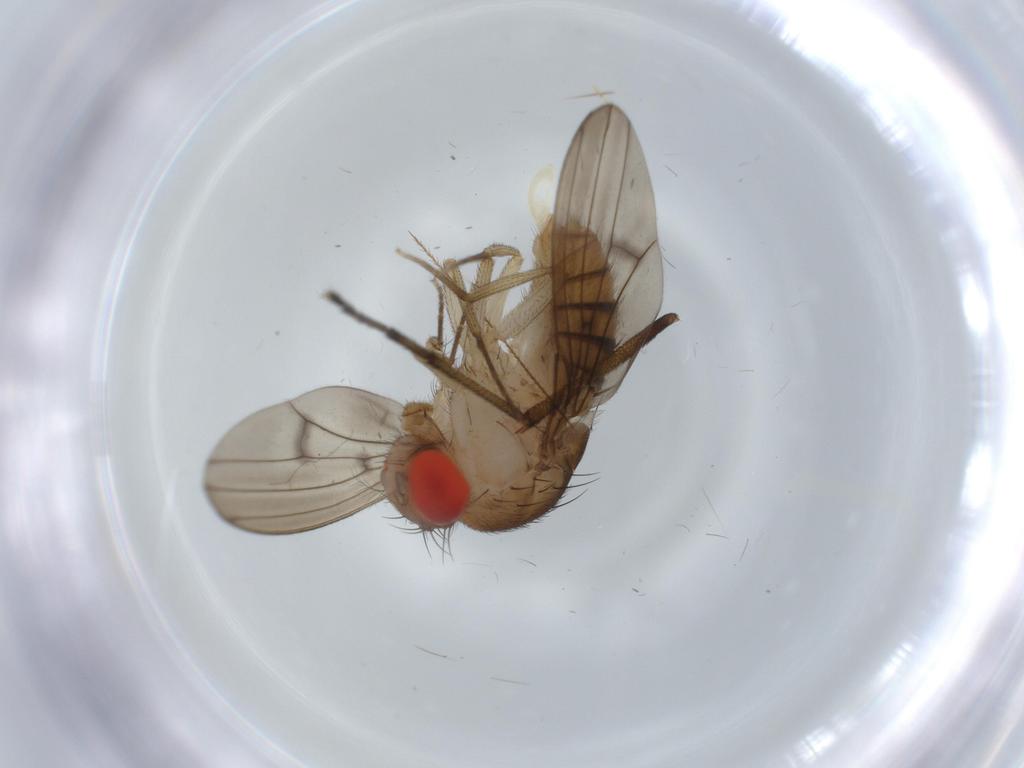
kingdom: Animalia
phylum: Arthropoda
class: Insecta
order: Diptera
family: Drosophilidae
